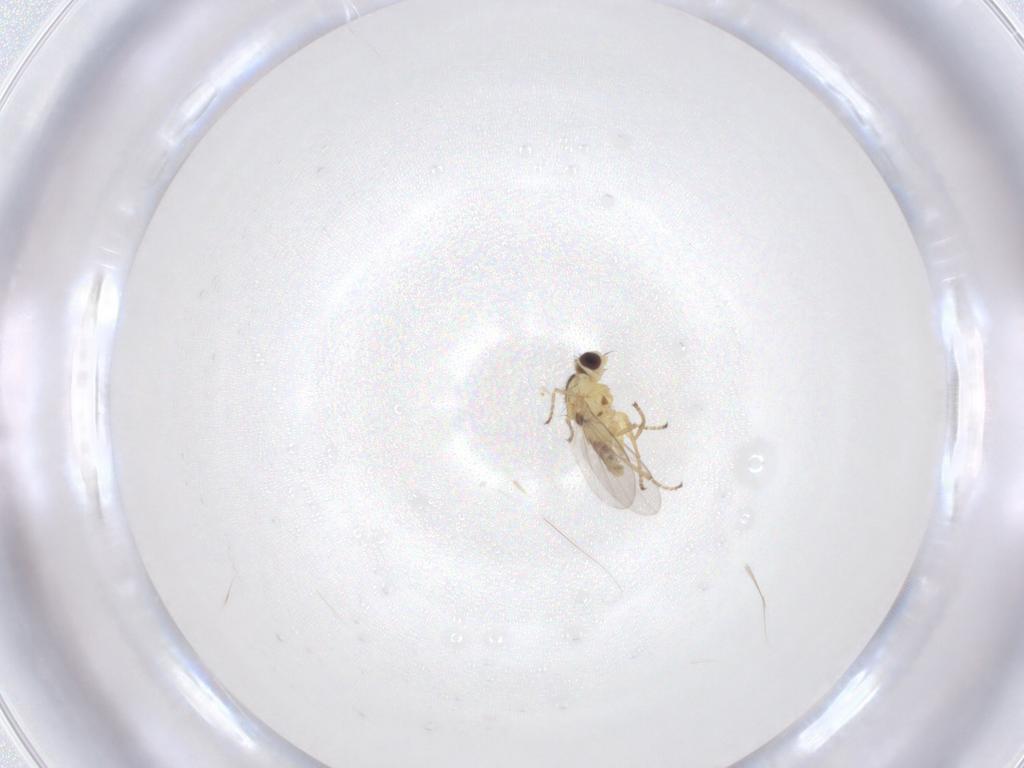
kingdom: Animalia
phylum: Arthropoda
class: Insecta
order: Diptera
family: Agromyzidae
